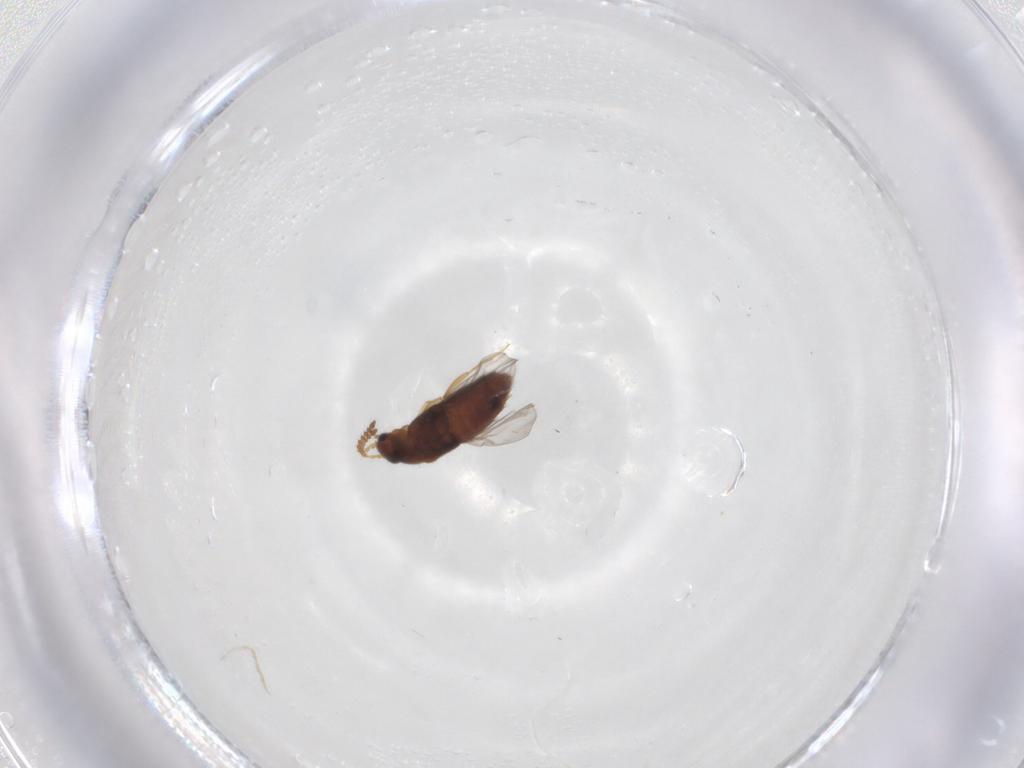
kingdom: Animalia
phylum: Arthropoda
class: Insecta
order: Coleoptera
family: Staphylinidae
